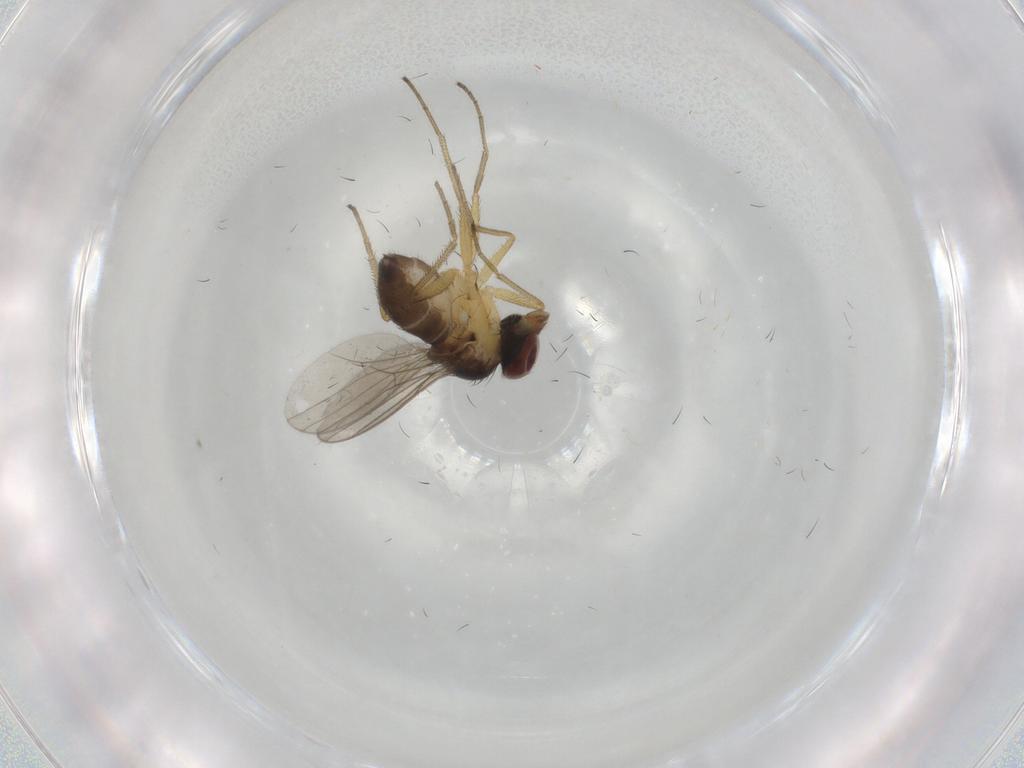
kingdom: Animalia
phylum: Arthropoda
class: Insecta
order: Diptera
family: Dolichopodidae
